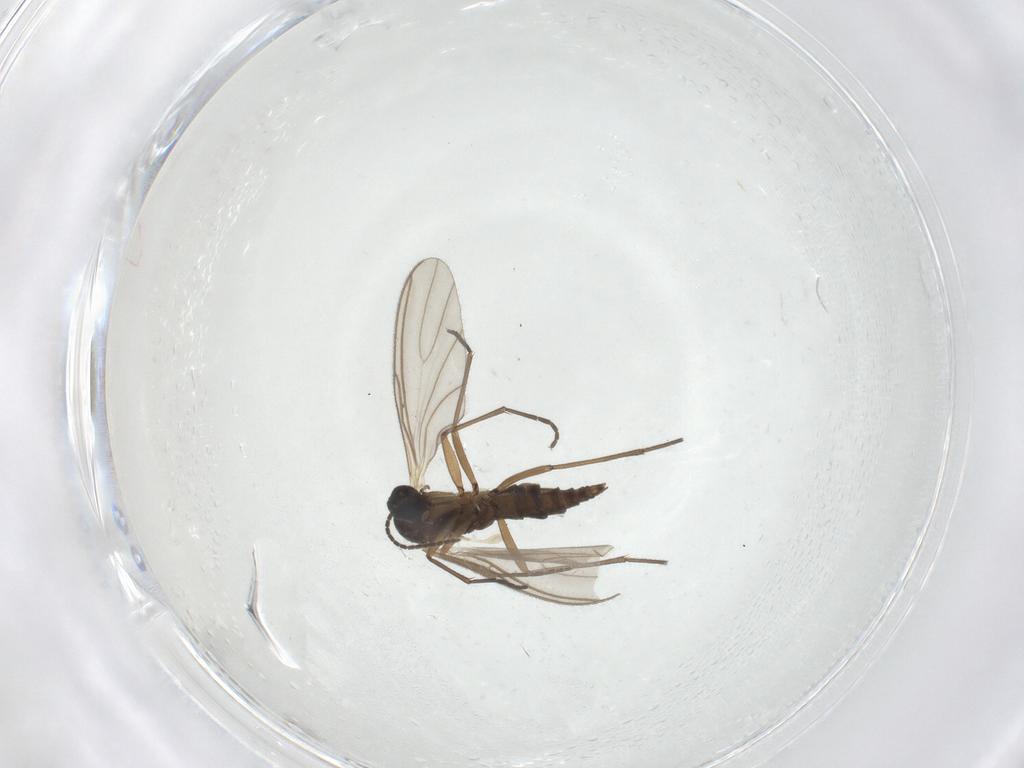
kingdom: Animalia
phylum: Arthropoda
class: Insecta
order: Diptera
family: Sciaridae
